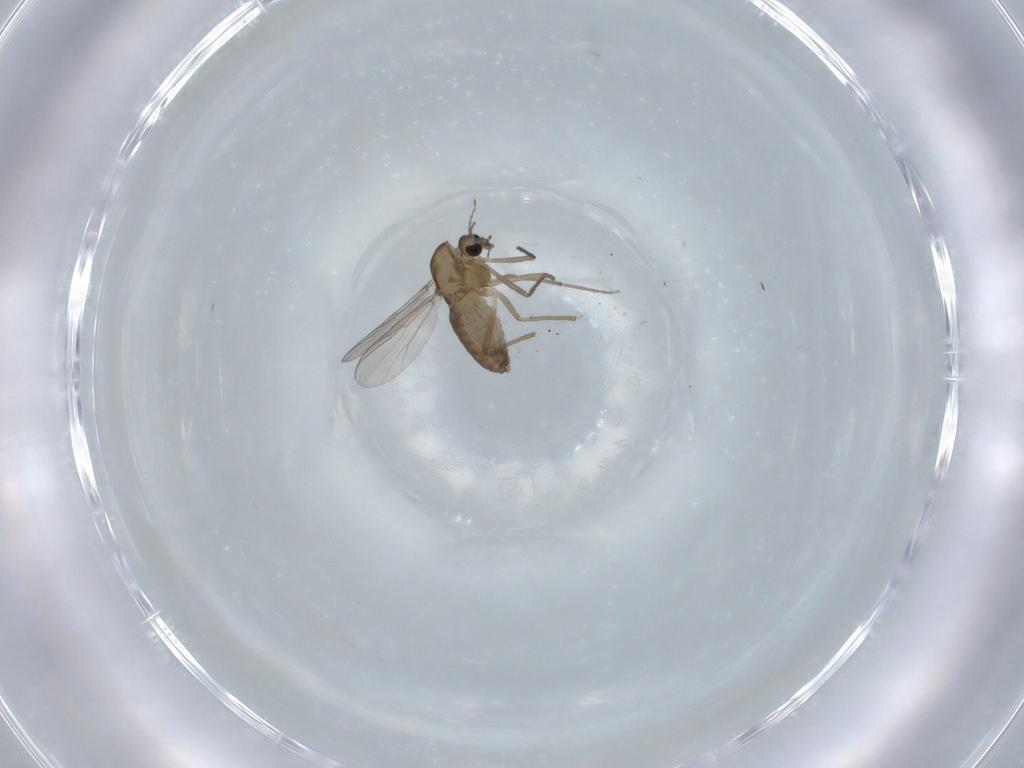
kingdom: Animalia
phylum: Arthropoda
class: Insecta
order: Diptera
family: Chironomidae
